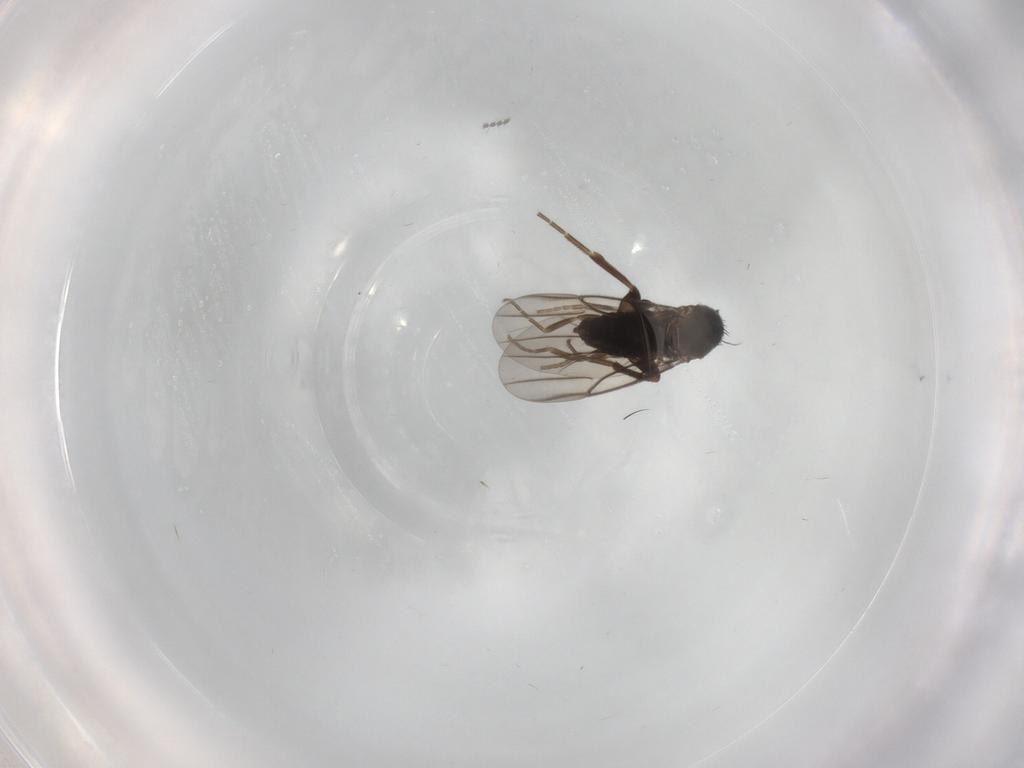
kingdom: Animalia
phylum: Arthropoda
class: Insecta
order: Diptera
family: Phoridae
